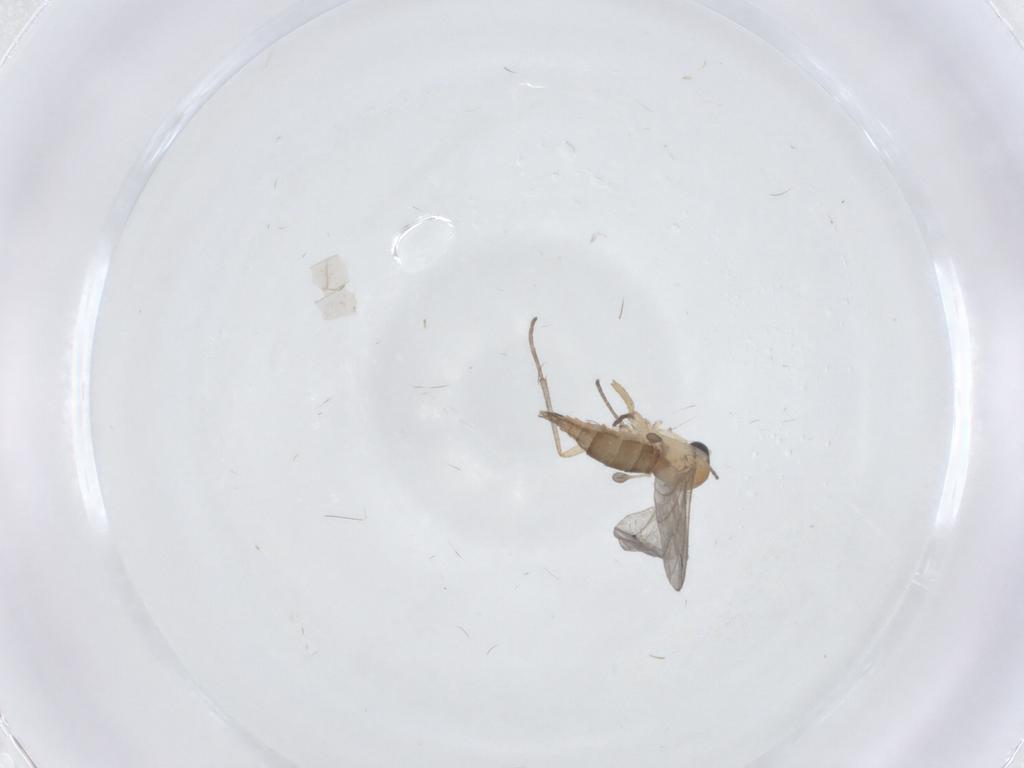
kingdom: Animalia
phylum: Arthropoda
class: Insecta
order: Diptera
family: Sciaridae
